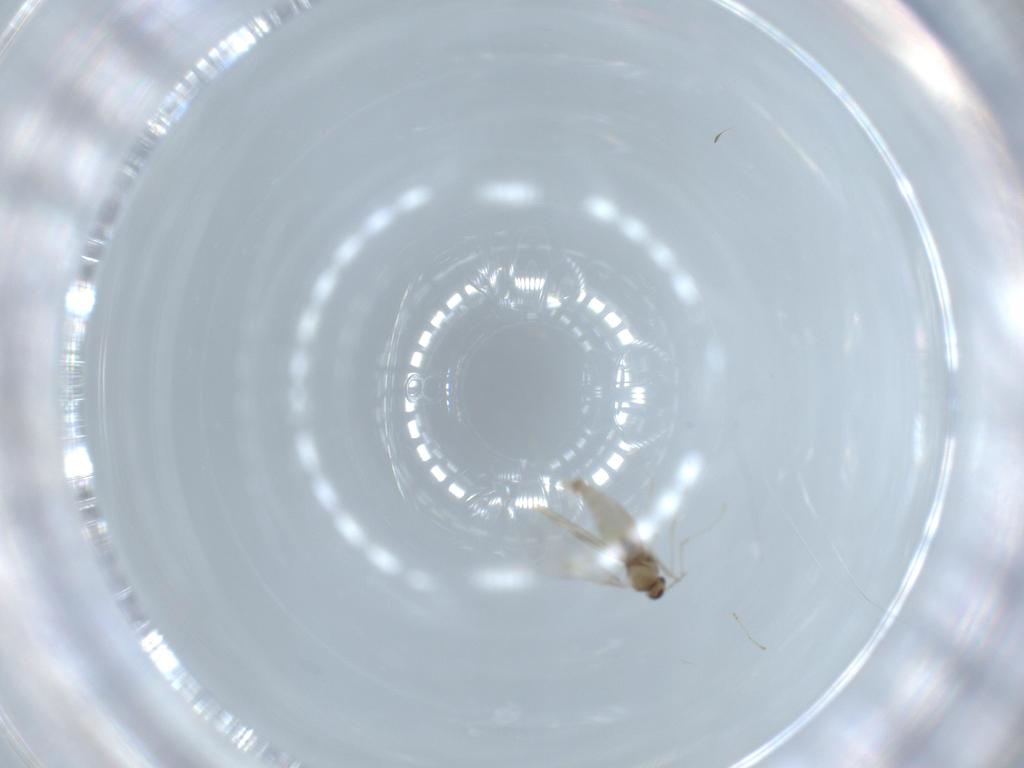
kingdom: Animalia
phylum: Arthropoda
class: Insecta
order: Diptera
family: Cecidomyiidae
